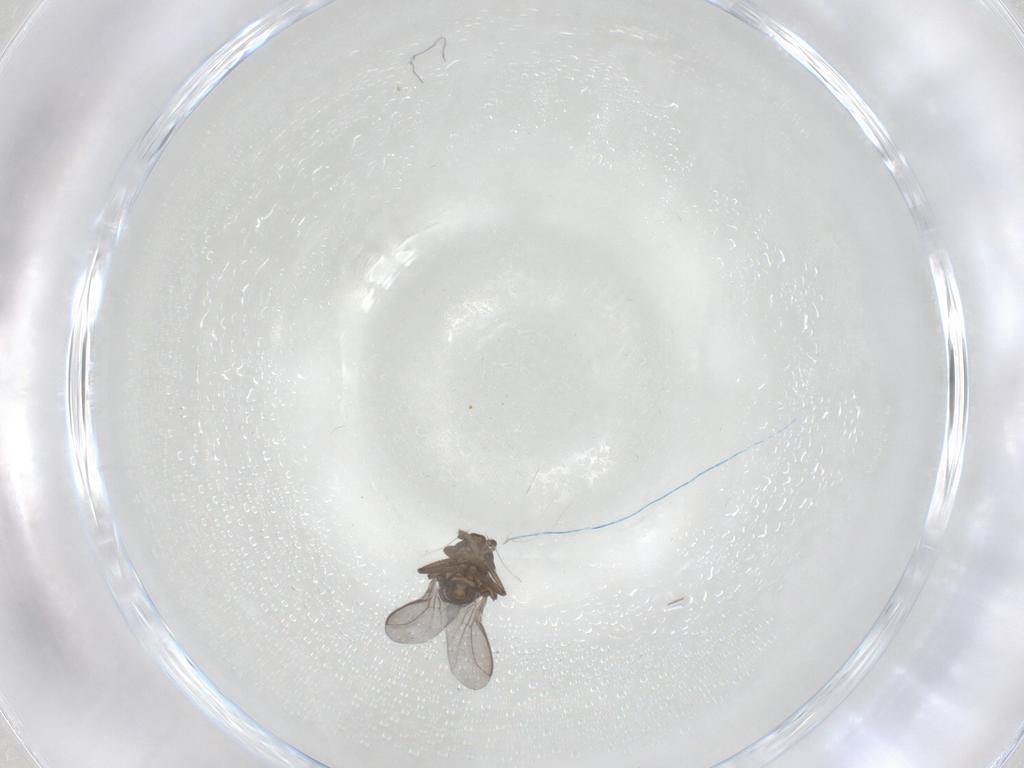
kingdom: Animalia
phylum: Arthropoda
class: Insecta
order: Diptera
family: Sphaeroceridae
